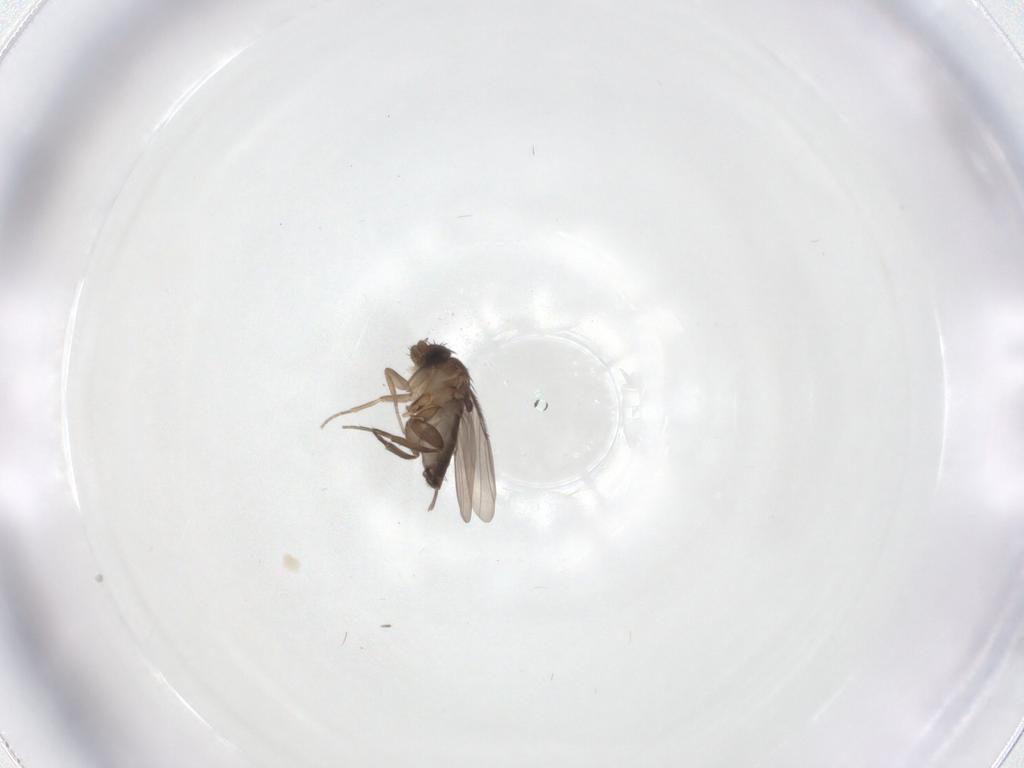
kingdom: Animalia
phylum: Arthropoda
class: Insecta
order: Diptera
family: Phoridae
